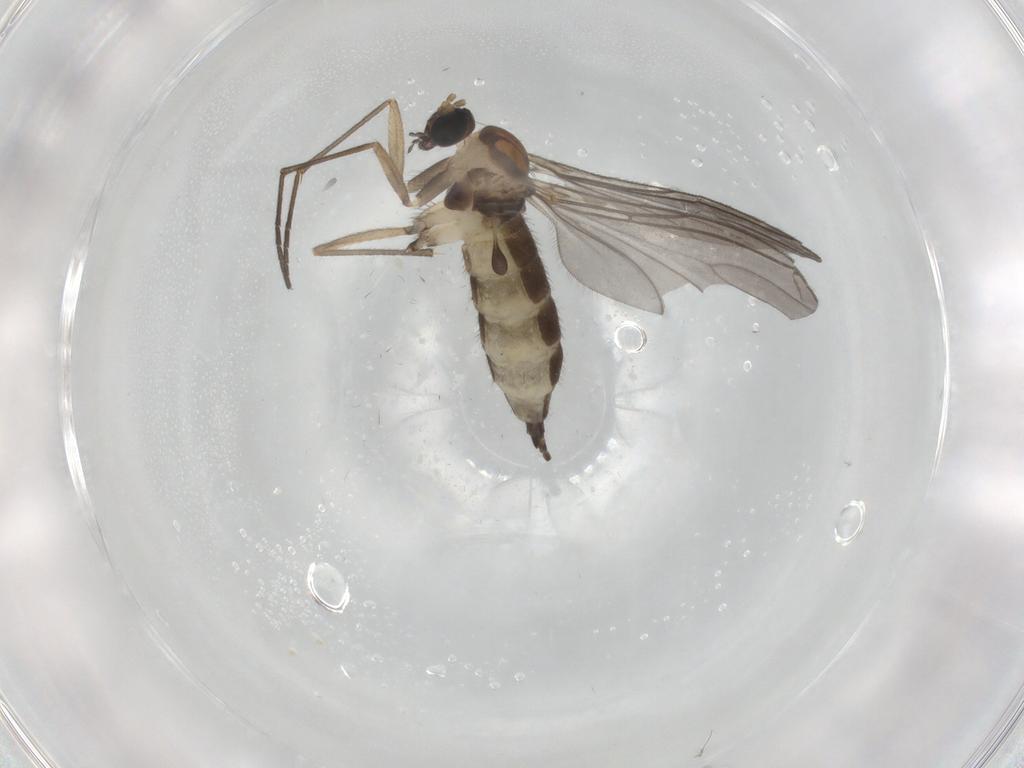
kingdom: Animalia
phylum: Arthropoda
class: Insecta
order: Diptera
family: Sciaridae
